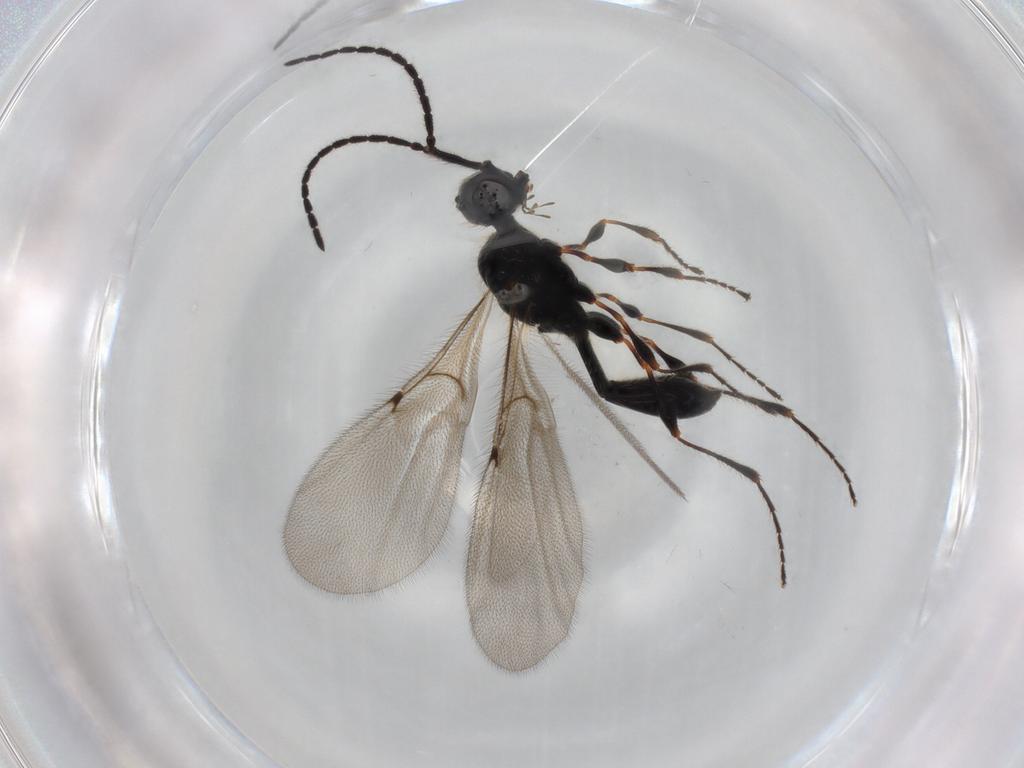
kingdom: Animalia
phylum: Arthropoda
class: Insecta
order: Hymenoptera
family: Diapriidae
